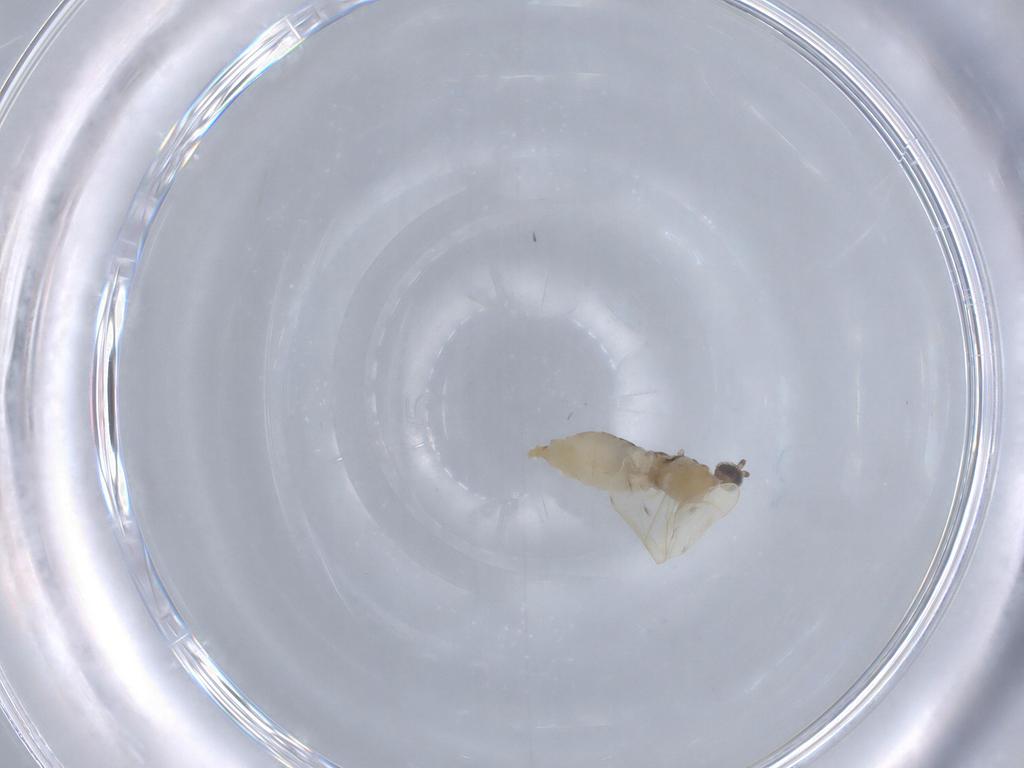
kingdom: Animalia
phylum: Arthropoda
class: Insecta
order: Diptera
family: Cecidomyiidae
